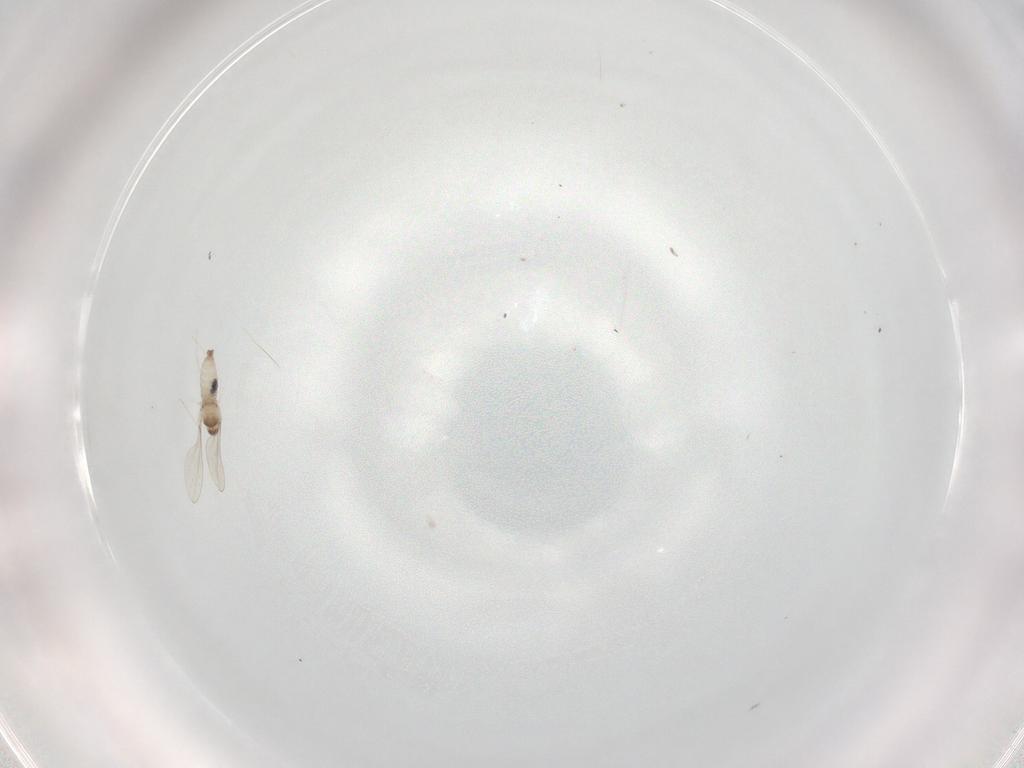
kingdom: Animalia
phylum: Arthropoda
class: Insecta
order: Diptera
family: Cecidomyiidae
